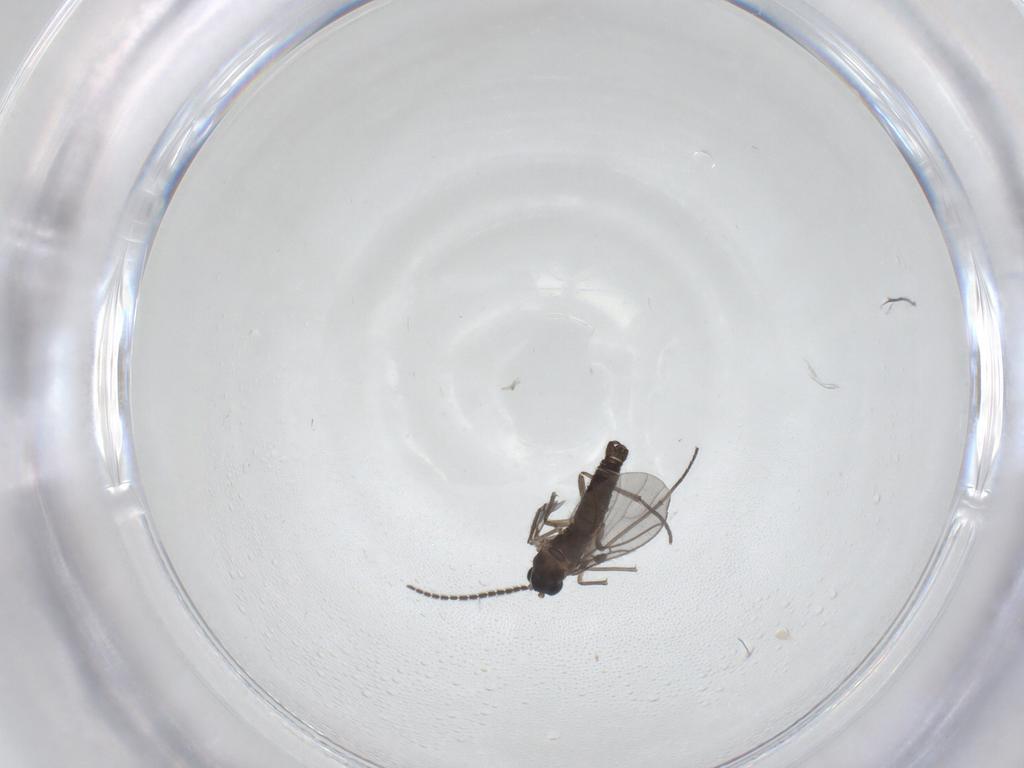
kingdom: Animalia
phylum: Arthropoda
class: Insecta
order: Diptera
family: Sciaridae
